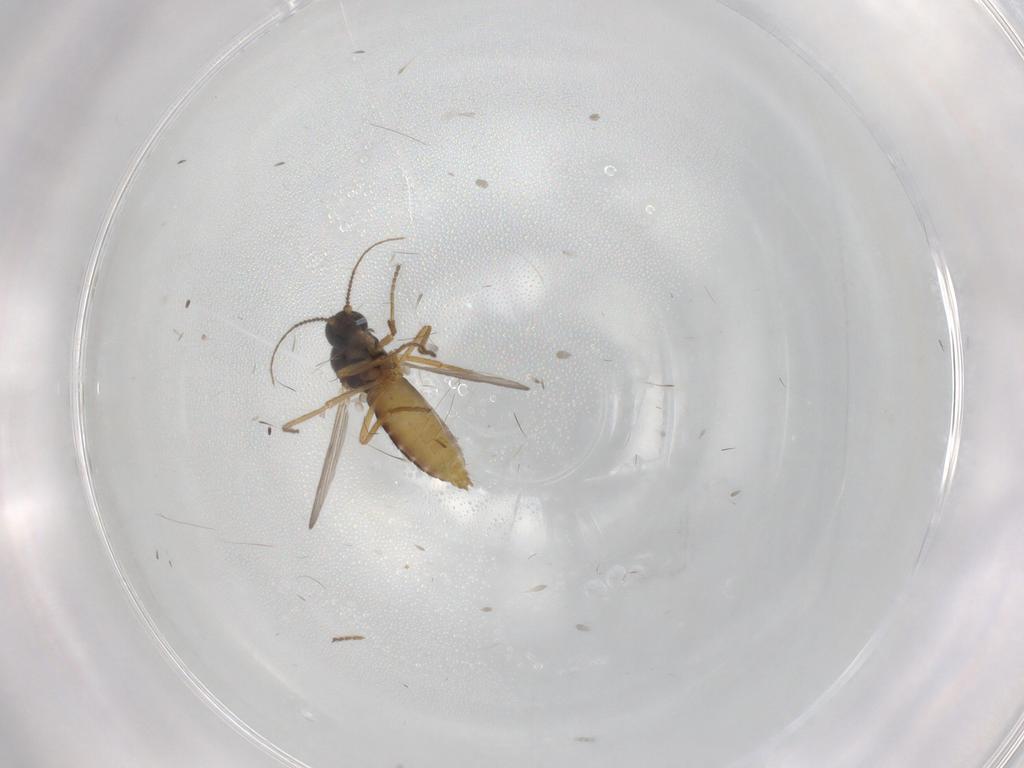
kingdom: Animalia
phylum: Arthropoda
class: Insecta
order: Diptera
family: Ceratopogonidae
